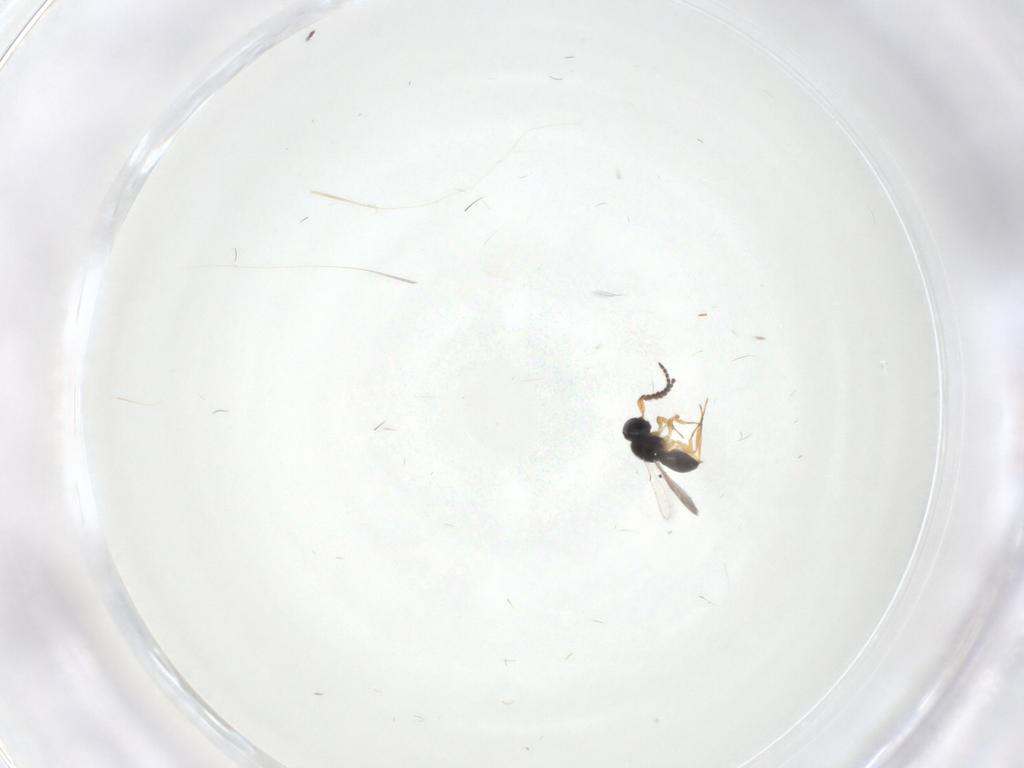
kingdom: Animalia
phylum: Arthropoda
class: Insecta
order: Hymenoptera
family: Scelionidae
